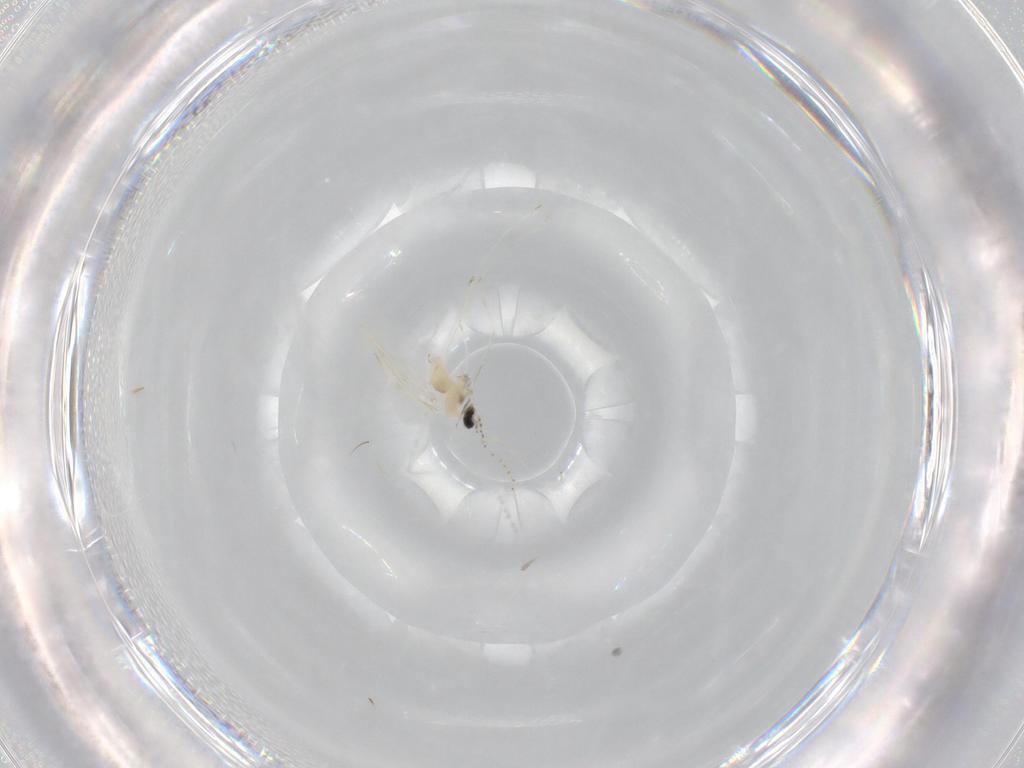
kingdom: Animalia
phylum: Arthropoda
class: Insecta
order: Diptera
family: Cecidomyiidae
